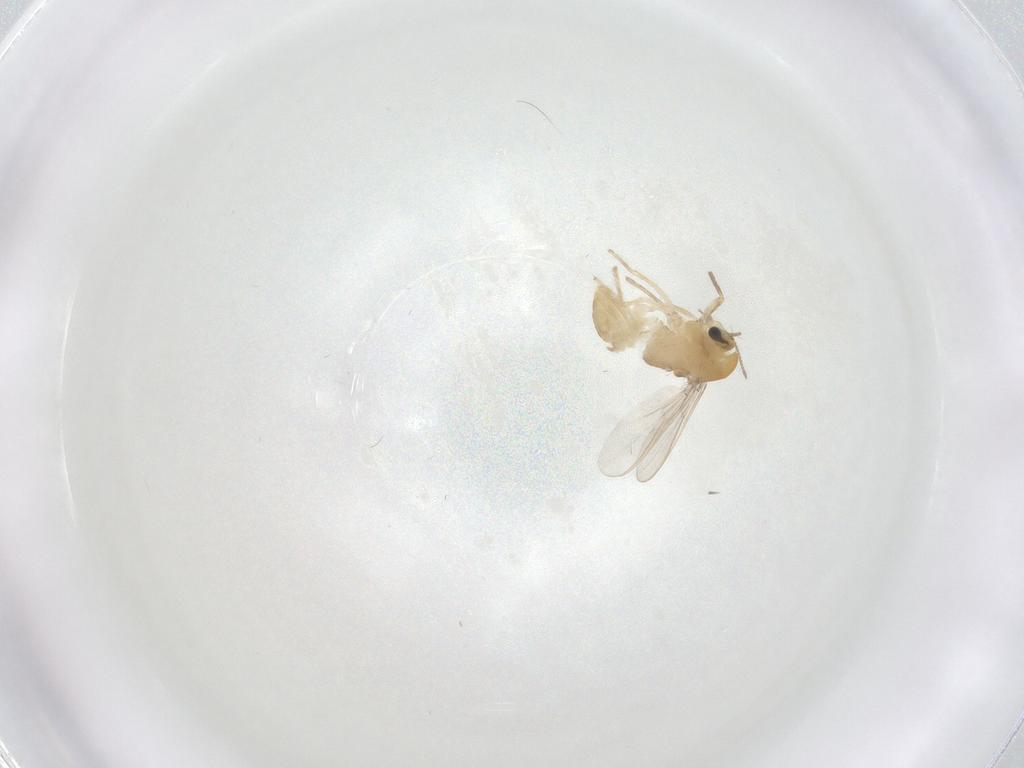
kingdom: Animalia
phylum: Arthropoda
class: Insecta
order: Diptera
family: Chironomidae
